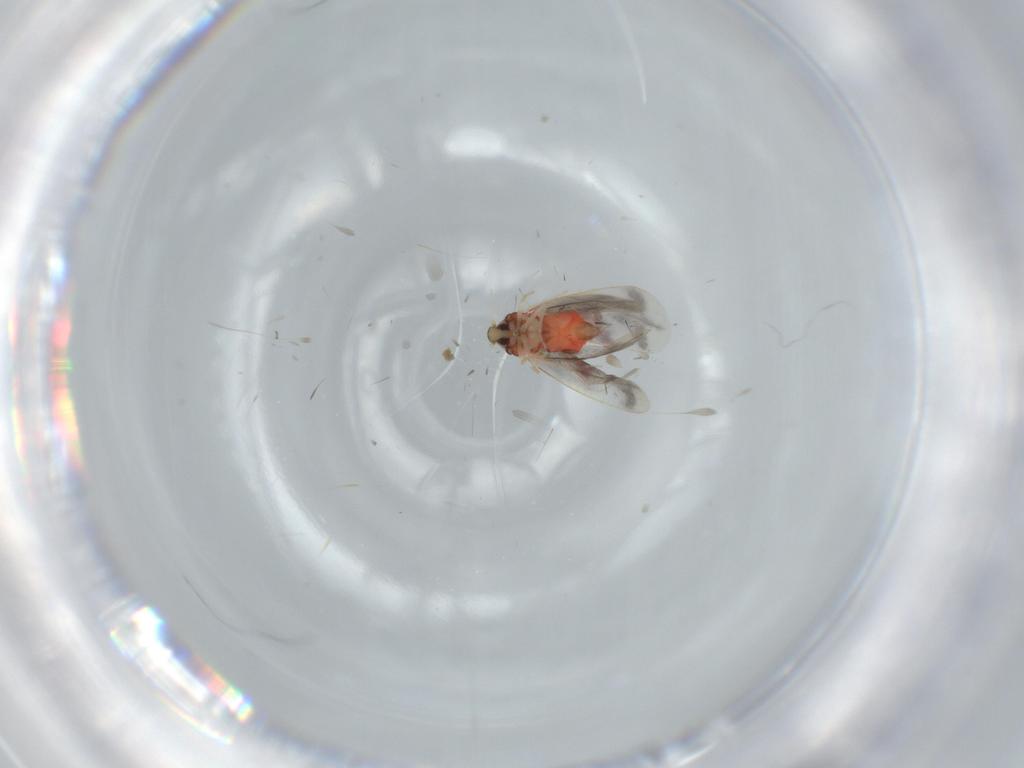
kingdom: Animalia
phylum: Arthropoda
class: Insecta
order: Hemiptera
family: Aleyrodidae
